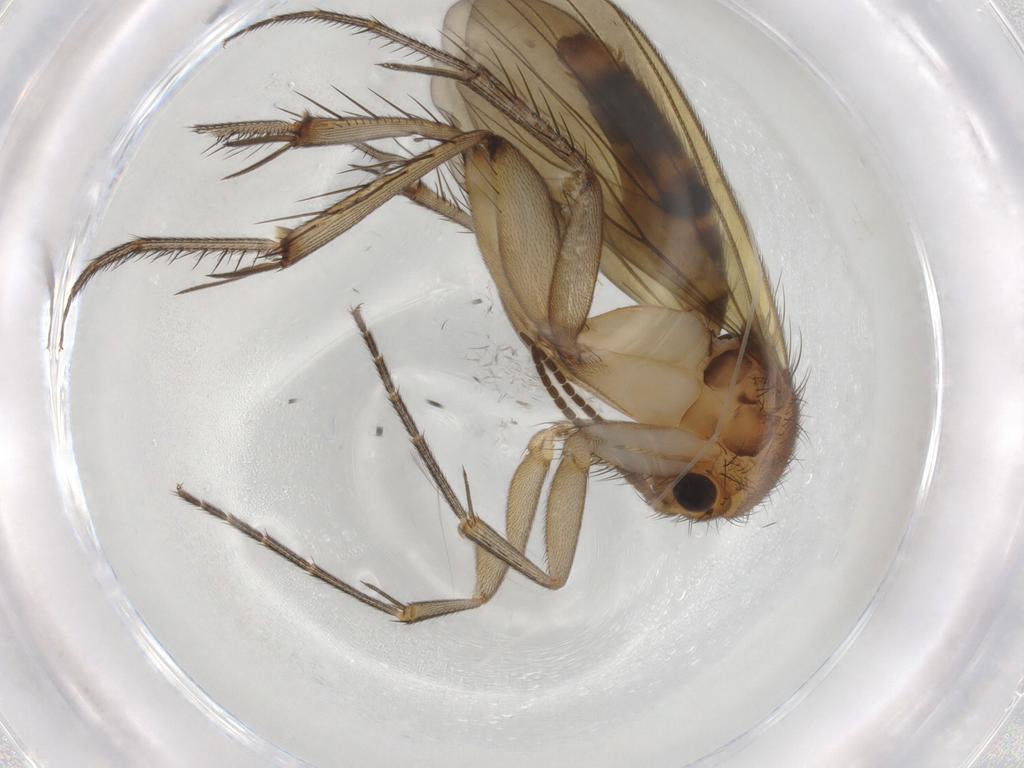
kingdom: Animalia
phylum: Arthropoda
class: Insecta
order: Diptera
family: Mycetophilidae
